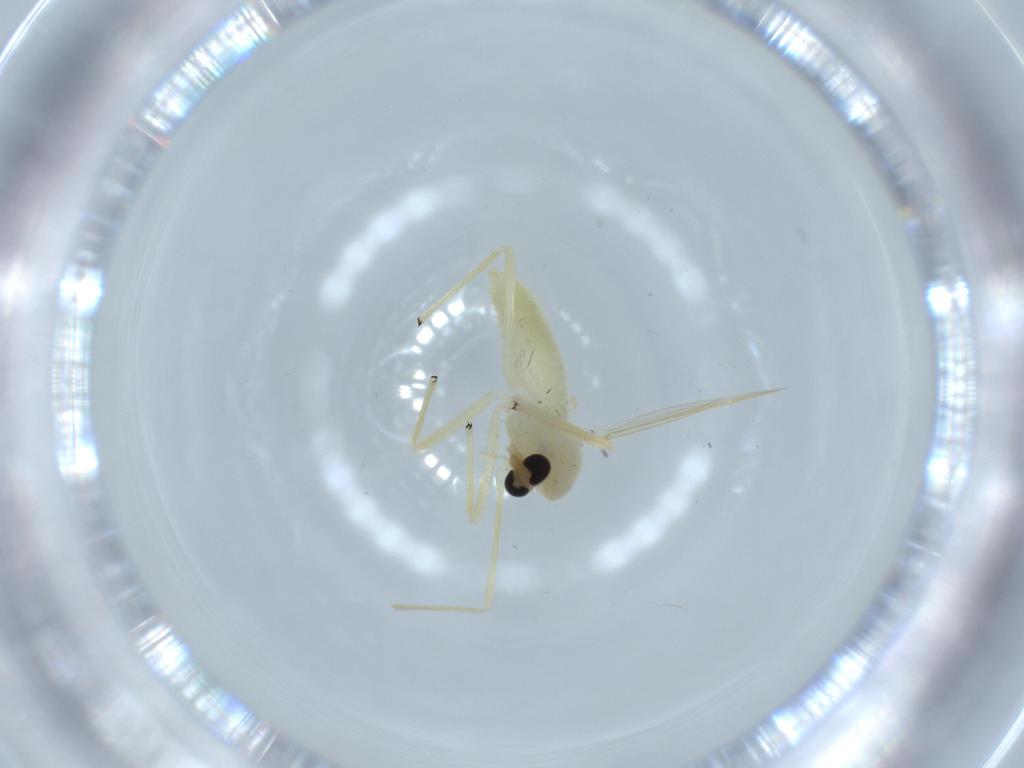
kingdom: Animalia
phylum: Arthropoda
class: Insecta
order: Diptera
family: Chironomidae
